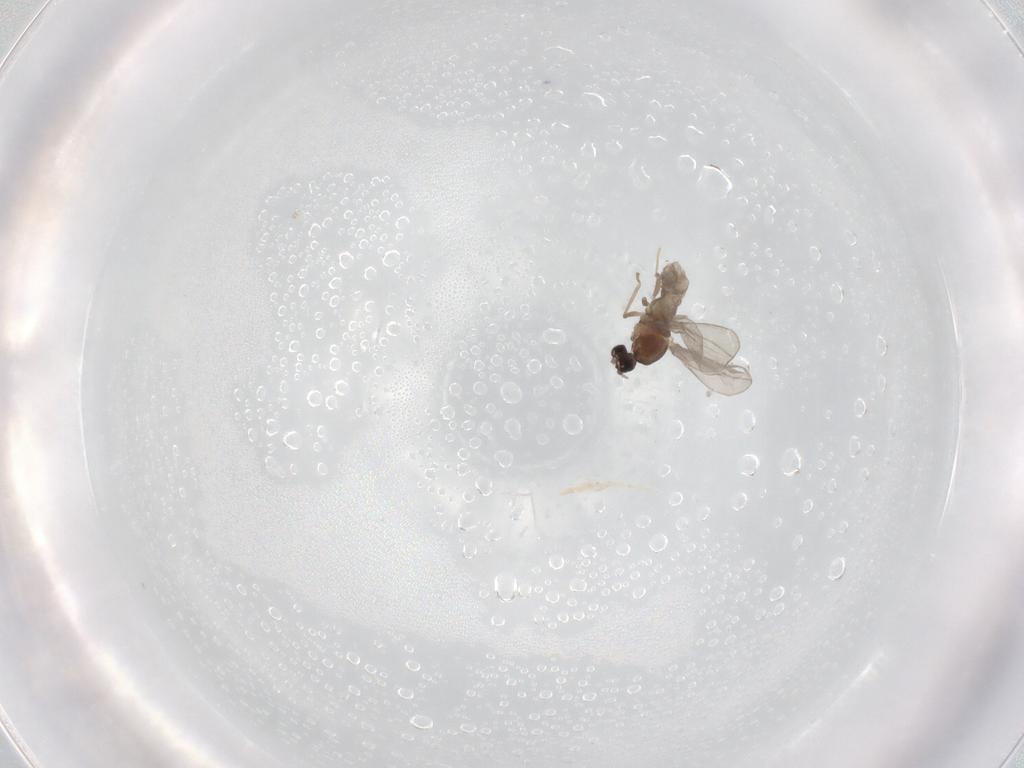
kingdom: Animalia
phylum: Arthropoda
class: Insecta
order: Diptera
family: Cecidomyiidae
